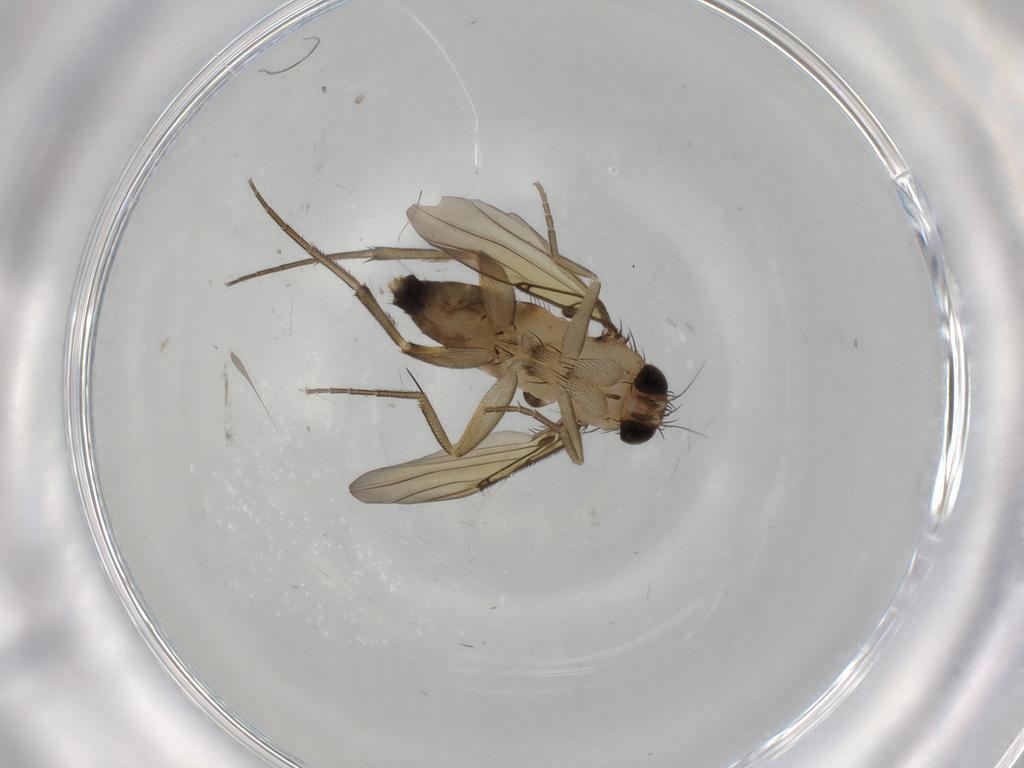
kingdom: Animalia
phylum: Arthropoda
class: Insecta
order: Diptera
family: Phoridae
